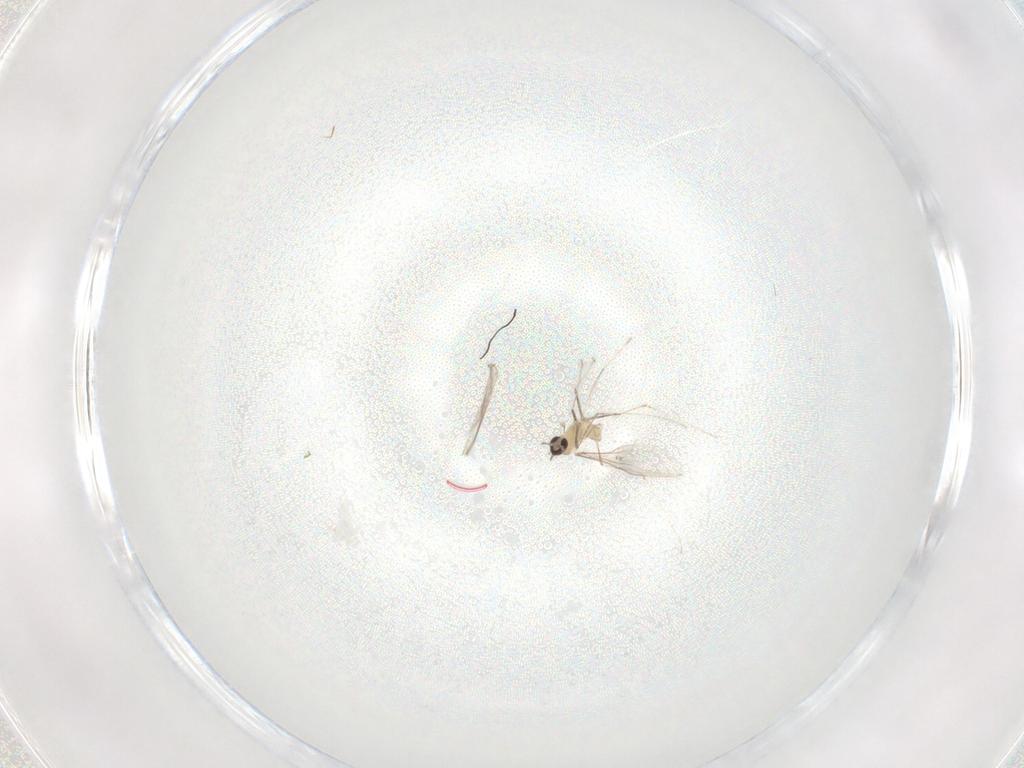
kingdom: Animalia
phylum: Arthropoda
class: Insecta
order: Diptera
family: Cecidomyiidae
